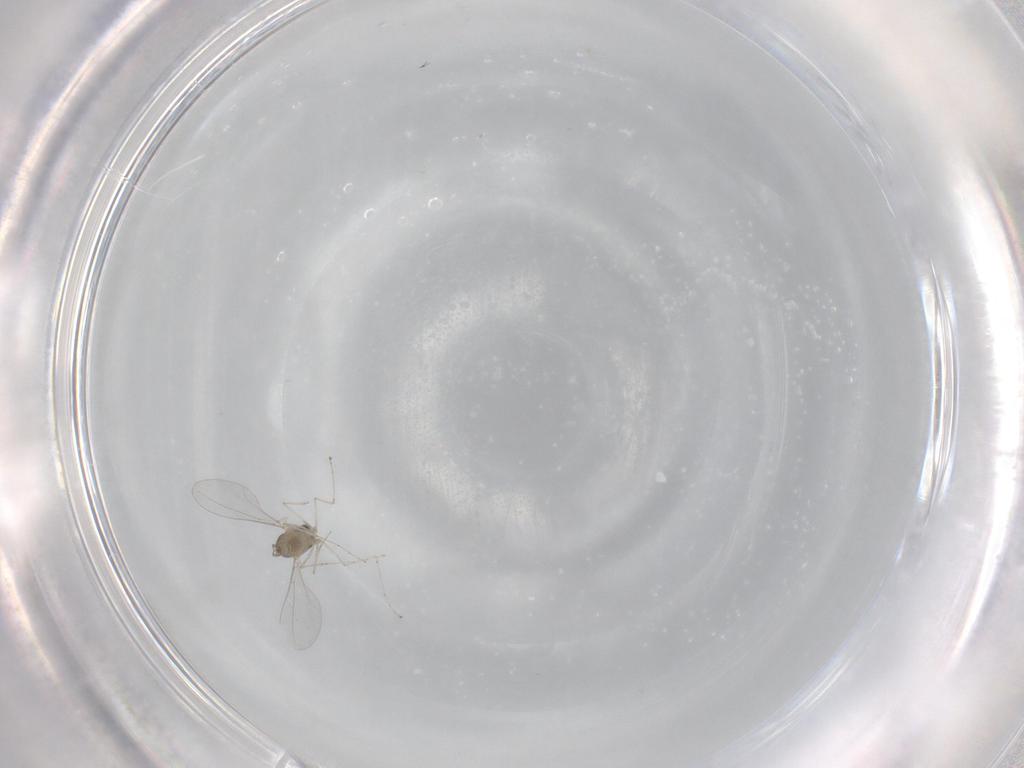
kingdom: Animalia
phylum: Arthropoda
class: Insecta
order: Diptera
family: Cecidomyiidae
